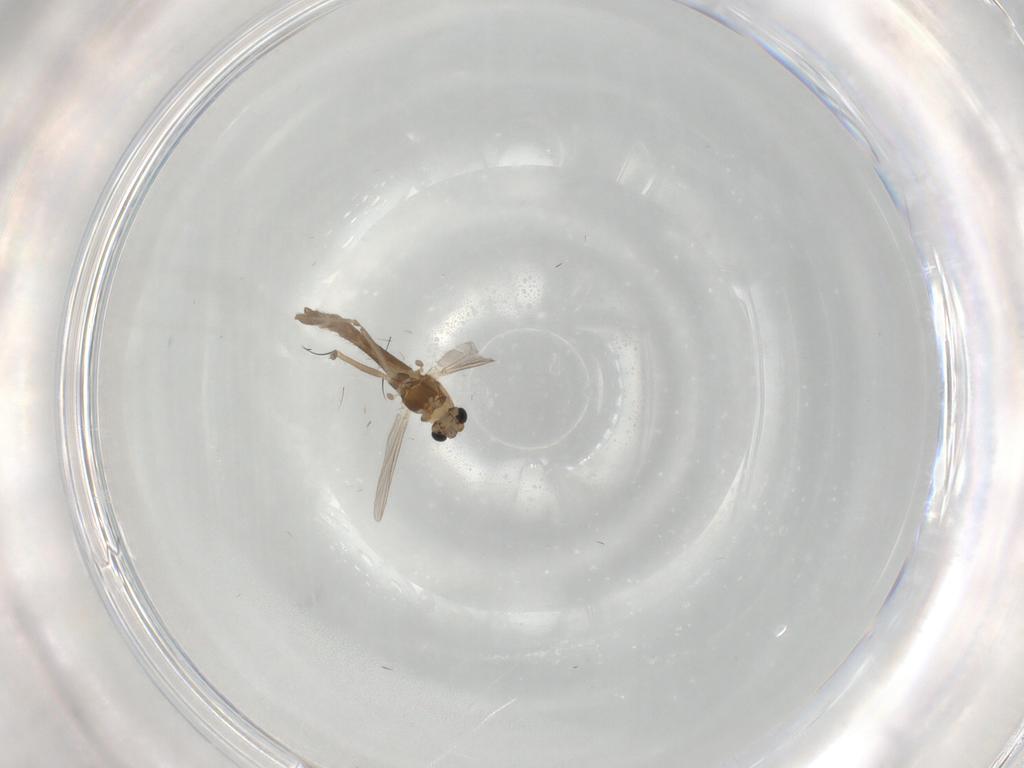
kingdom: Animalia
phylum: Arthropoda
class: Insecta
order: Diptera
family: Chironomidae
